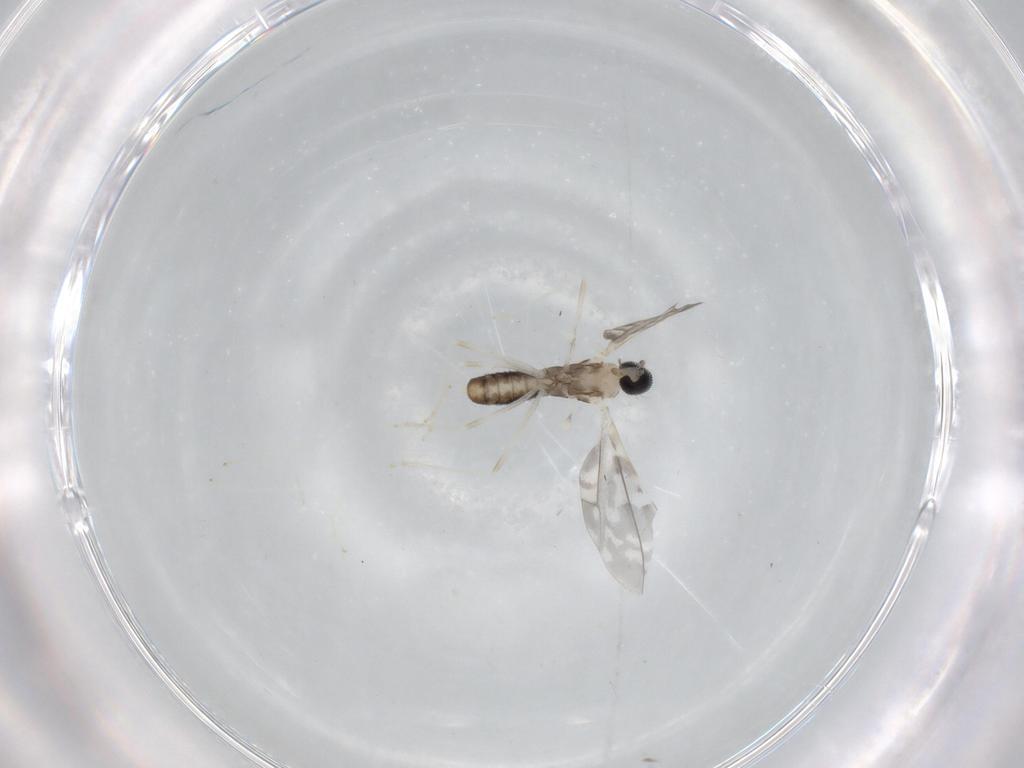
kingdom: Animalia
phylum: Arthropoda
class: Insecta
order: Diptera
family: Cecidomyiidae
